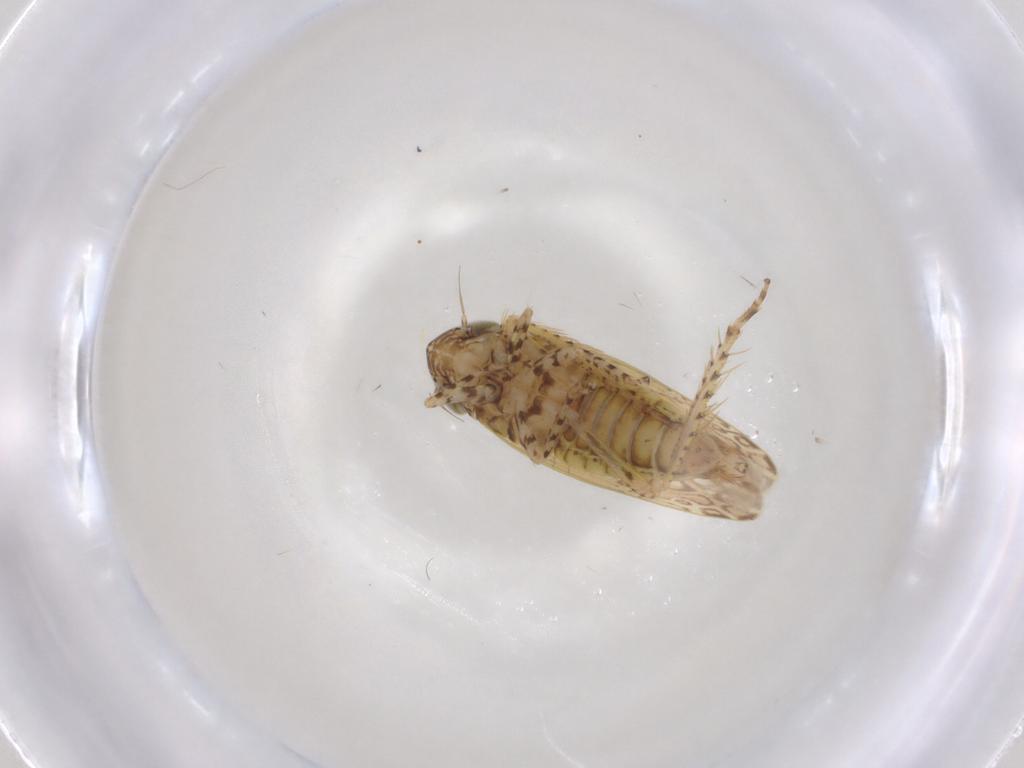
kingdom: Animalia
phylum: Arthropoda
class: Insecta
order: Hemiptera
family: Cicadellidae
